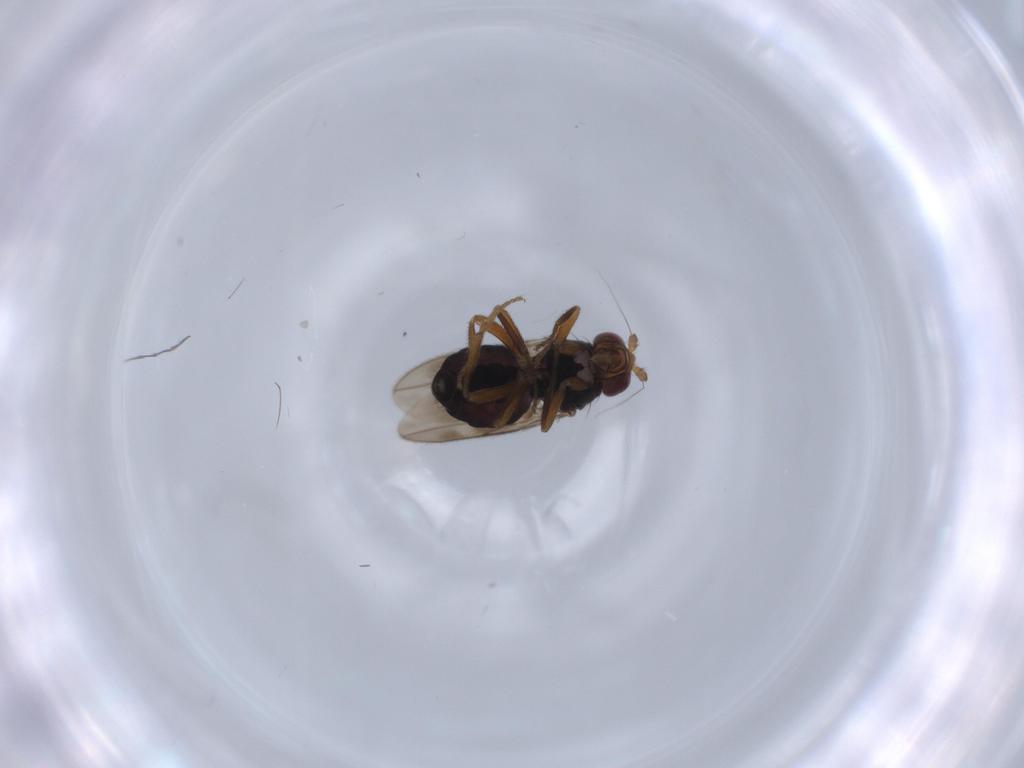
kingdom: Animalia
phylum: Arthropoda
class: Insecta
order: Diptera
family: Sphaeroceridae
